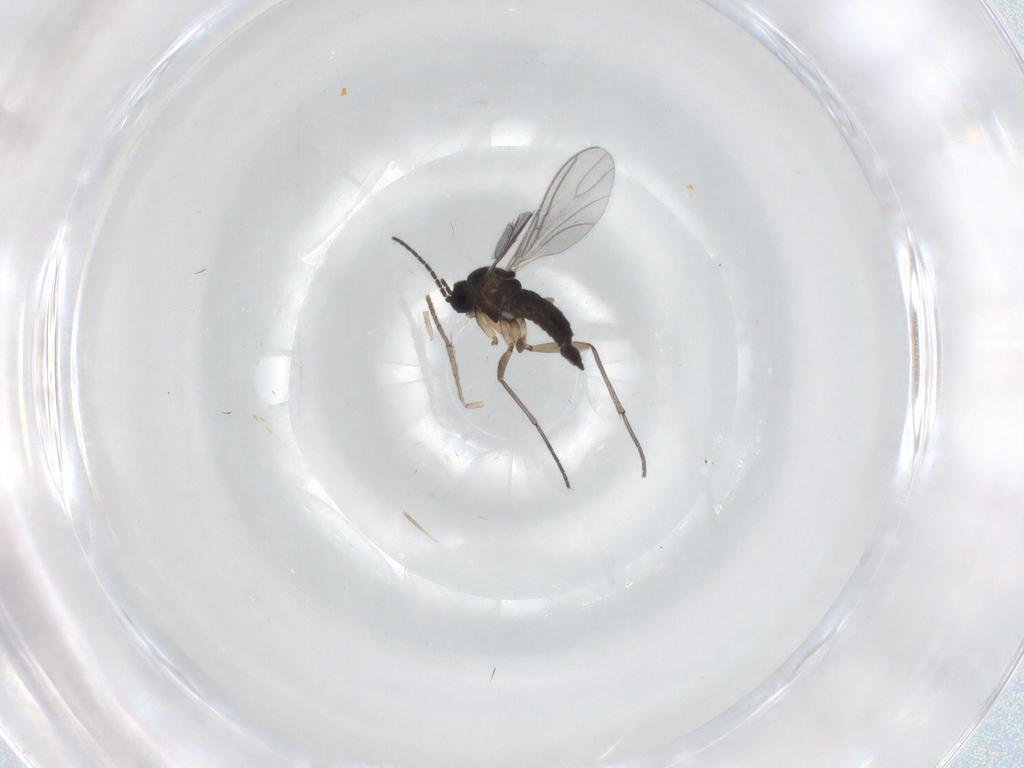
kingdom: Animalia
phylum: Arthropoda
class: Insecta
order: Diptera
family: Sciaridae
